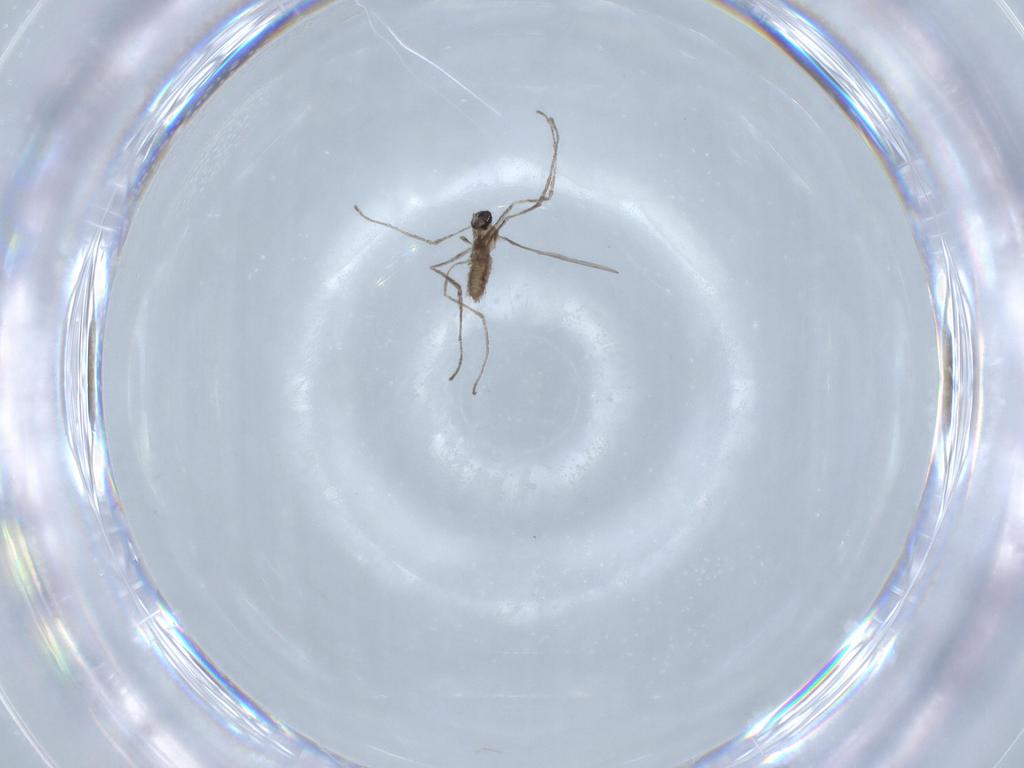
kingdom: Animalia
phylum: Arthropoda
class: Insecta
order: Diptera
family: Cecidomyiidae
